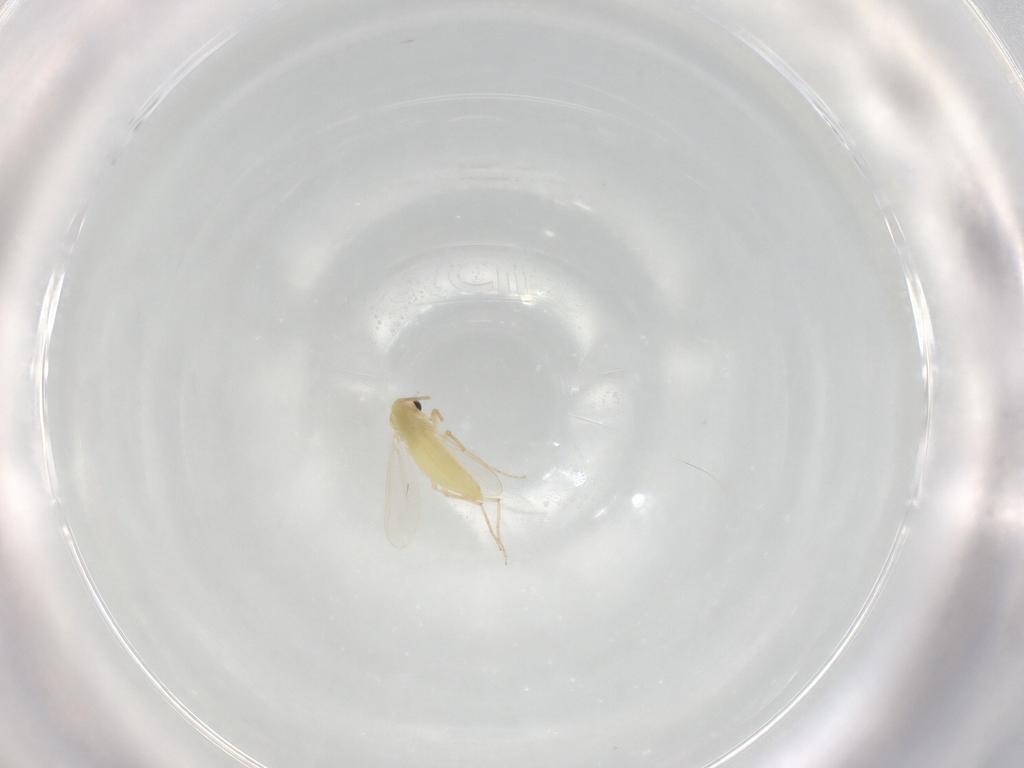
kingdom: Animalia
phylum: Arthropoda
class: Insecta
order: Diptera
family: Chironomidae
